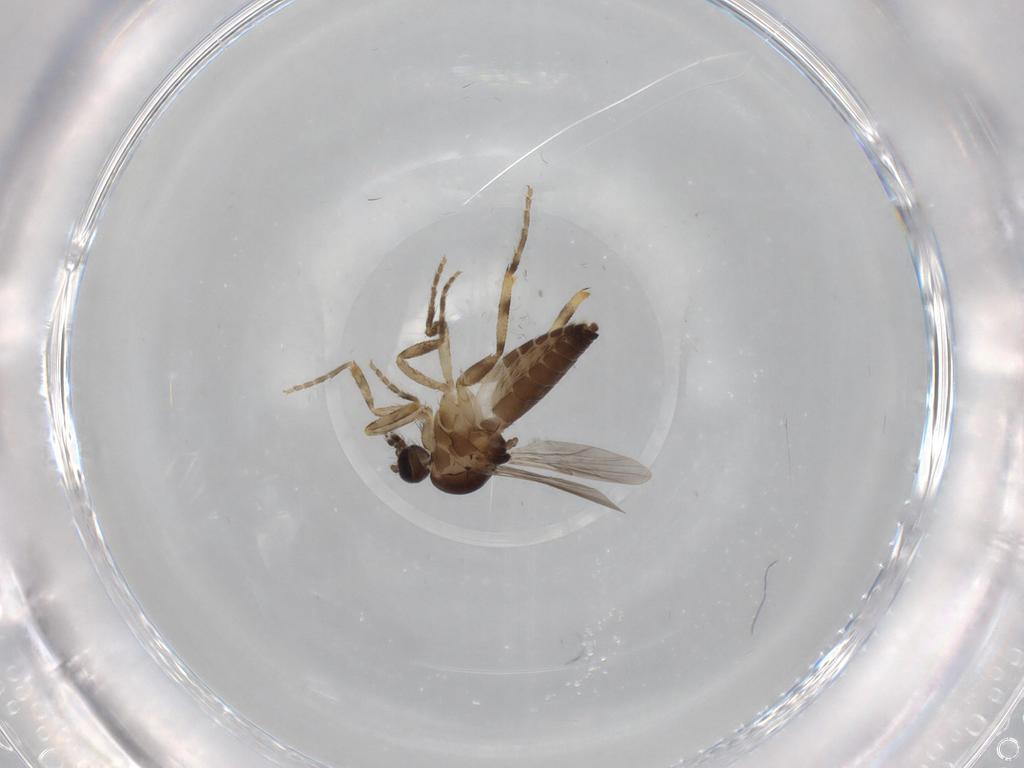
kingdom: Animalia
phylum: Arthropoda
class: Insecta
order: Diptera
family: Ceratopogonidae
